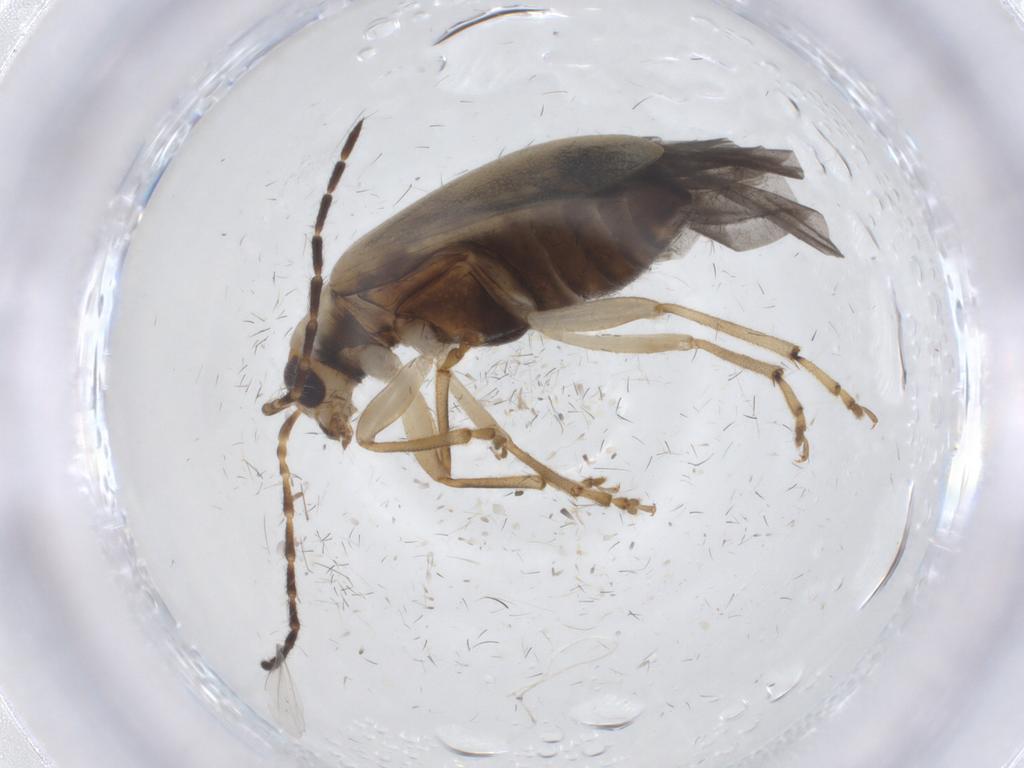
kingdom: Animalia
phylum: Arthropoda
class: Insecta
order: Coleoptera
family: Chrysomelidae
